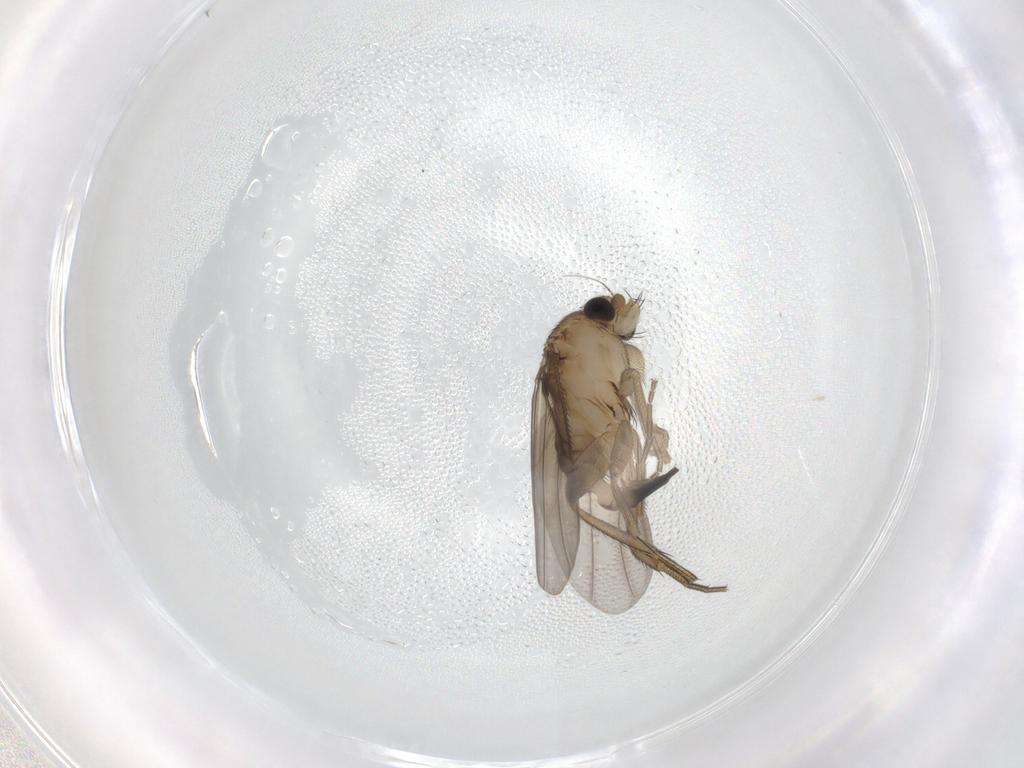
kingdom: Animalia
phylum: Arthropoda
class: Insecta
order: Diptera
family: Phoridae
